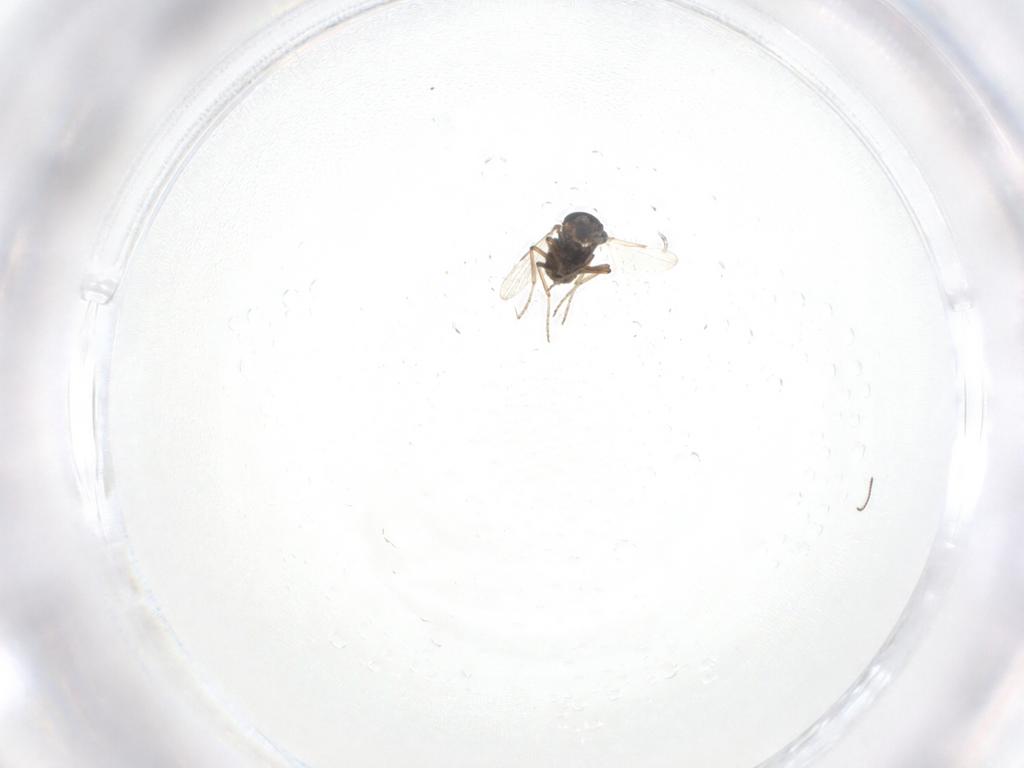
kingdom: Animalia
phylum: Arthropoda
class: Insecta
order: Diptera
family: Ceratopogonidae
